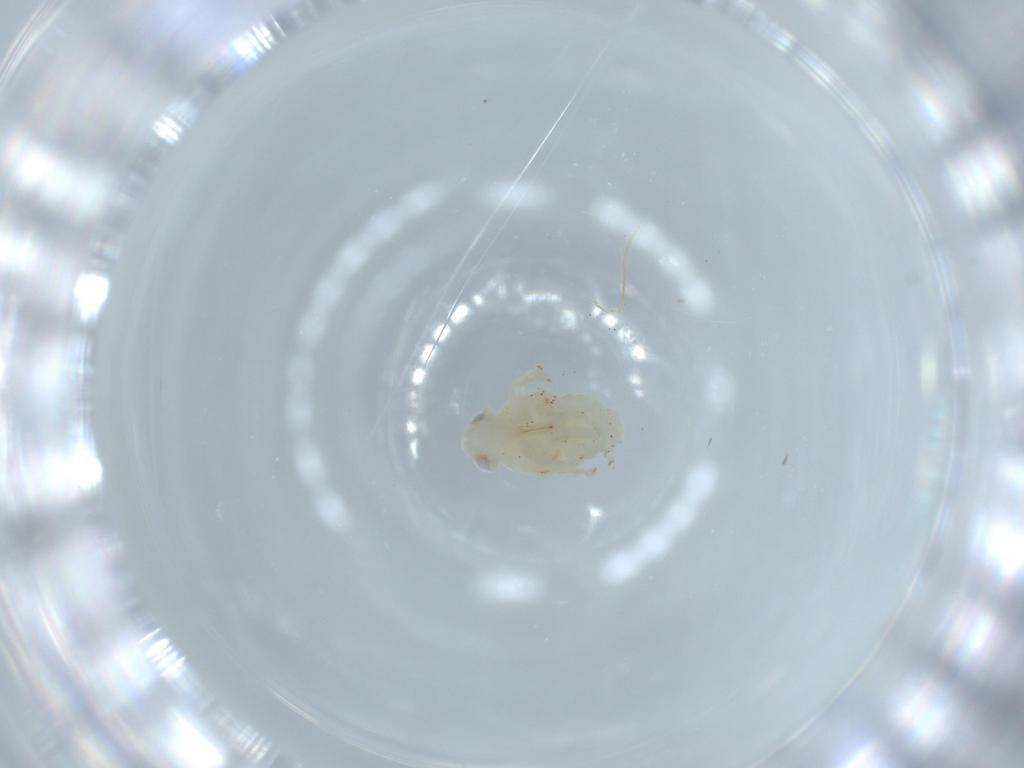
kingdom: Animalia
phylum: Arthropoda
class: Insecta
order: Hemiptera
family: Nogodinidae
